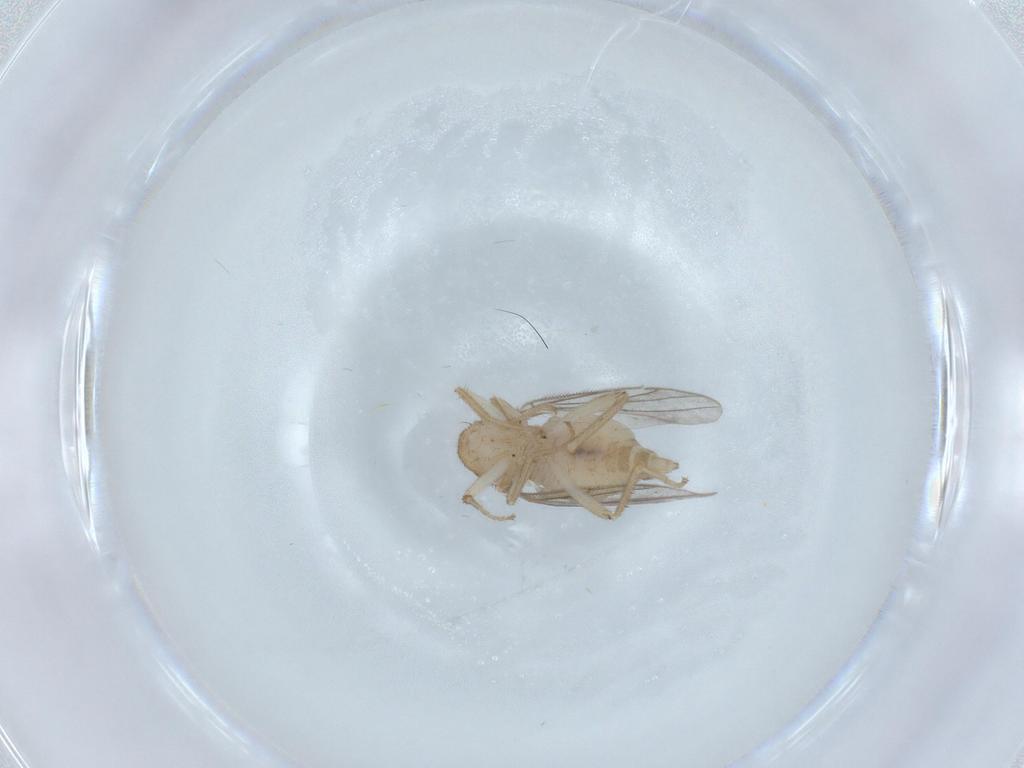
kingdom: Animalia
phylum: Arthropoda
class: Insecta
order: Diptera
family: Hybotidae
